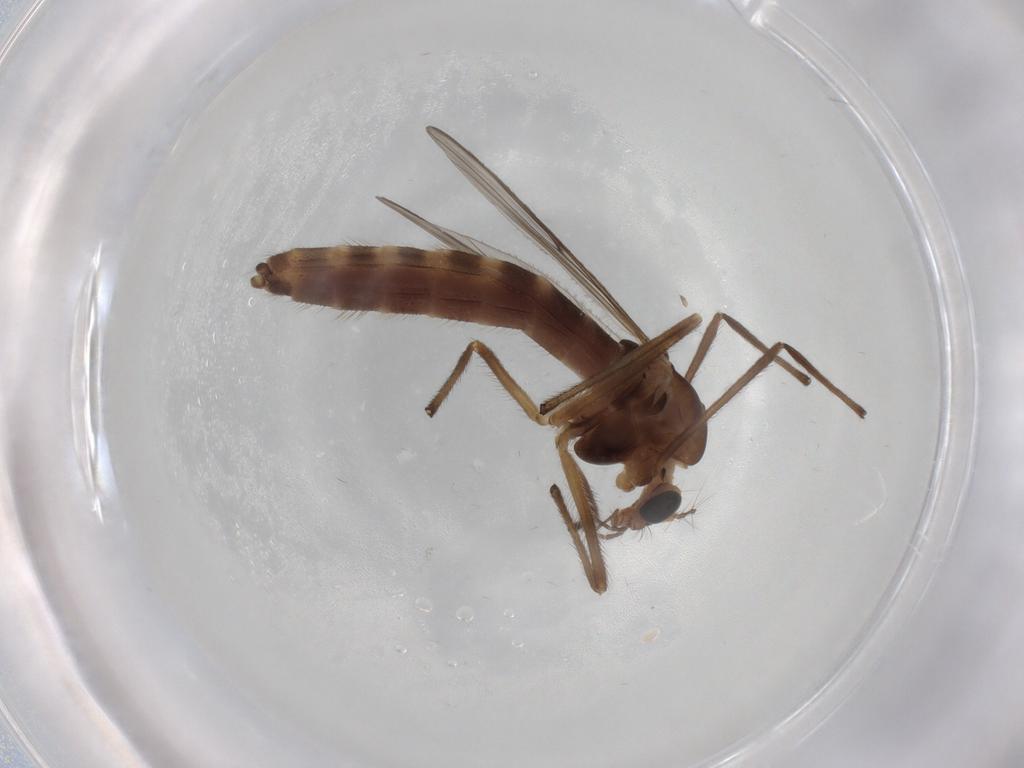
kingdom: Animalia
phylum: Arthropoda
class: Insecta
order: Diptera
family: Chironomidae
